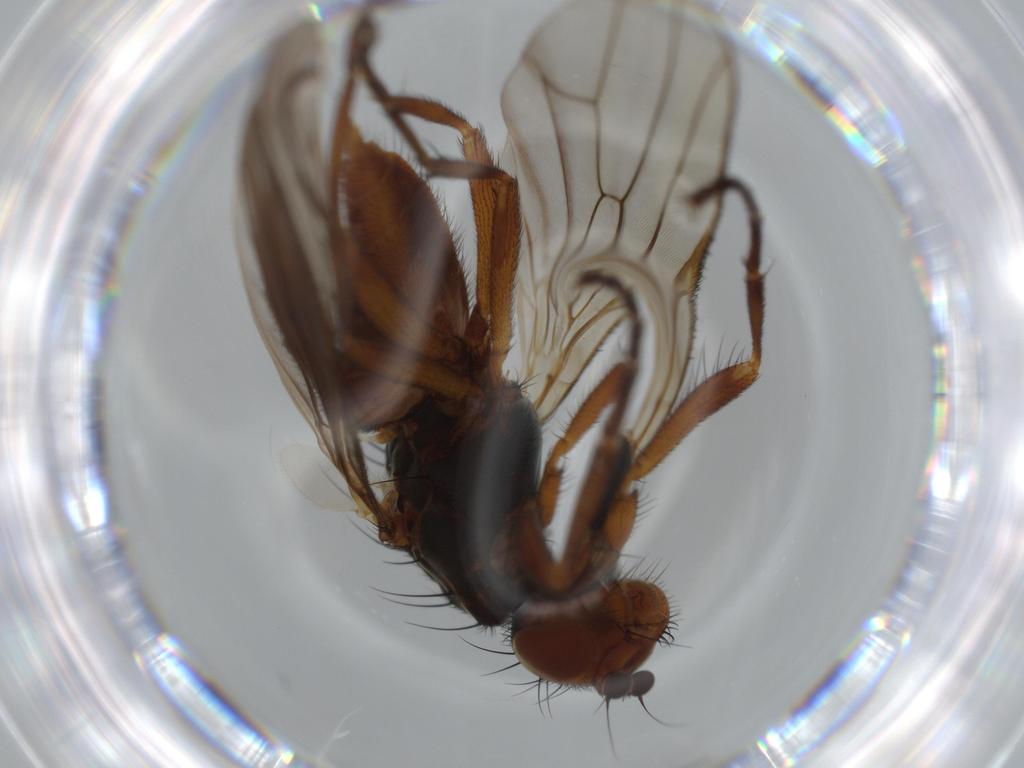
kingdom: Animalia
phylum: Arthropoda
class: Insecta
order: Diptera
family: Heleomyzidae
